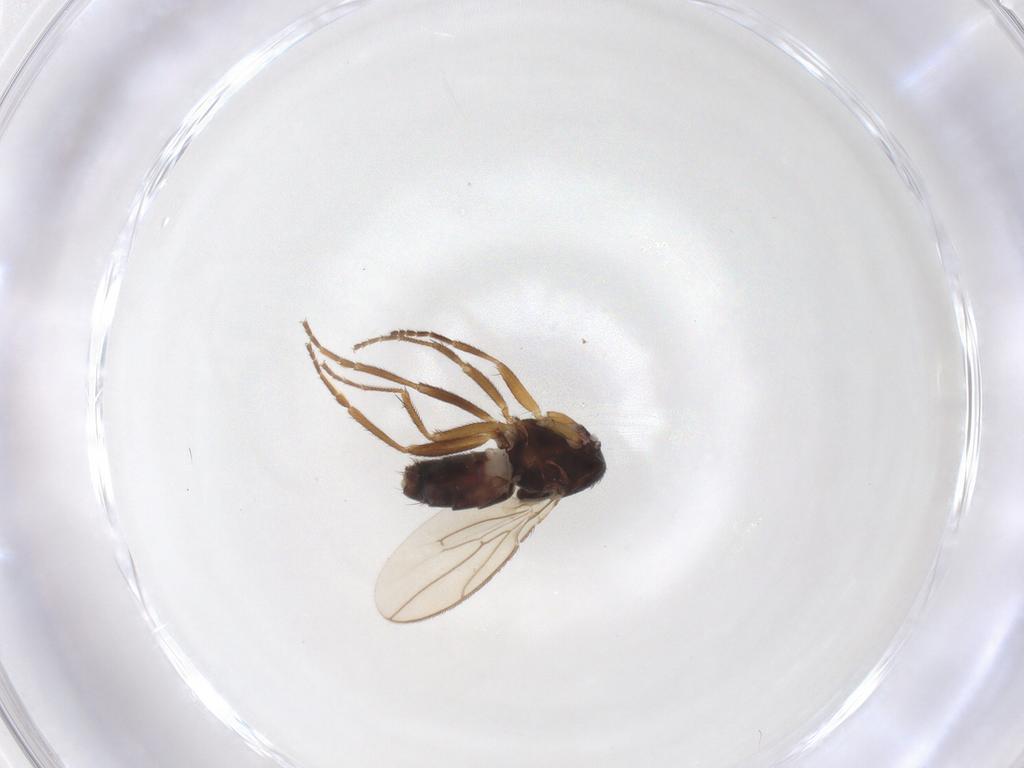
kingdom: Animalia
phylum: Arthropoda
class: Insecta
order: Diptera
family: Sphaeroceridae
